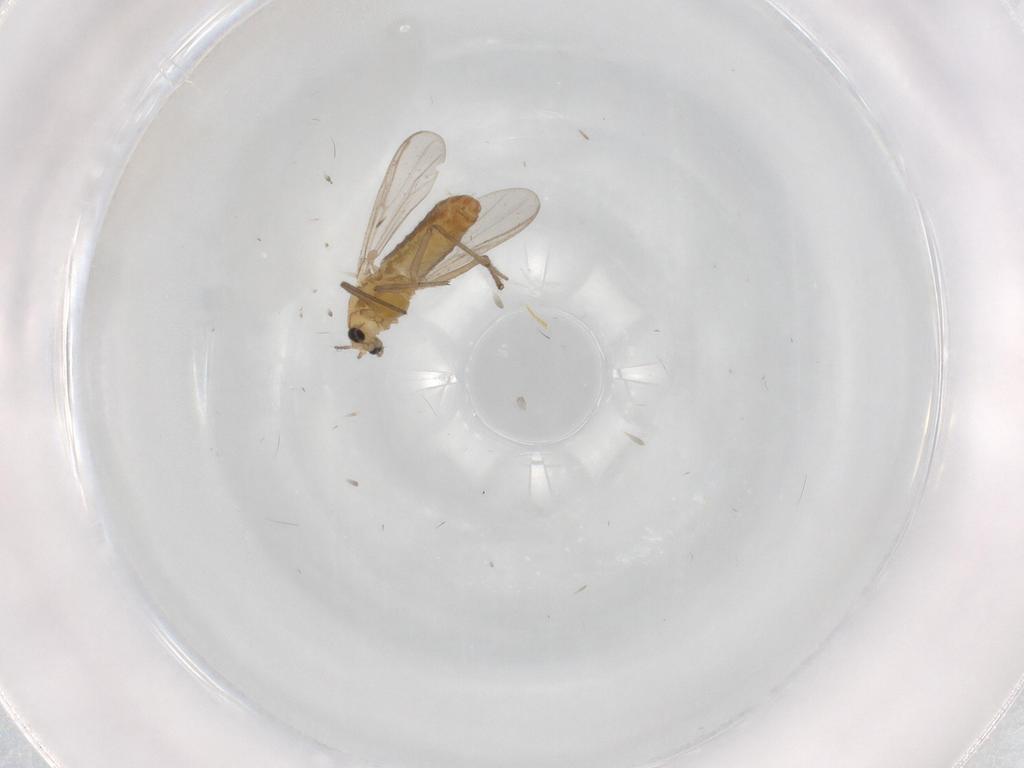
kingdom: Animalia
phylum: Arthropoda
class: Insecta
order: Diptera
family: Chironomidae
